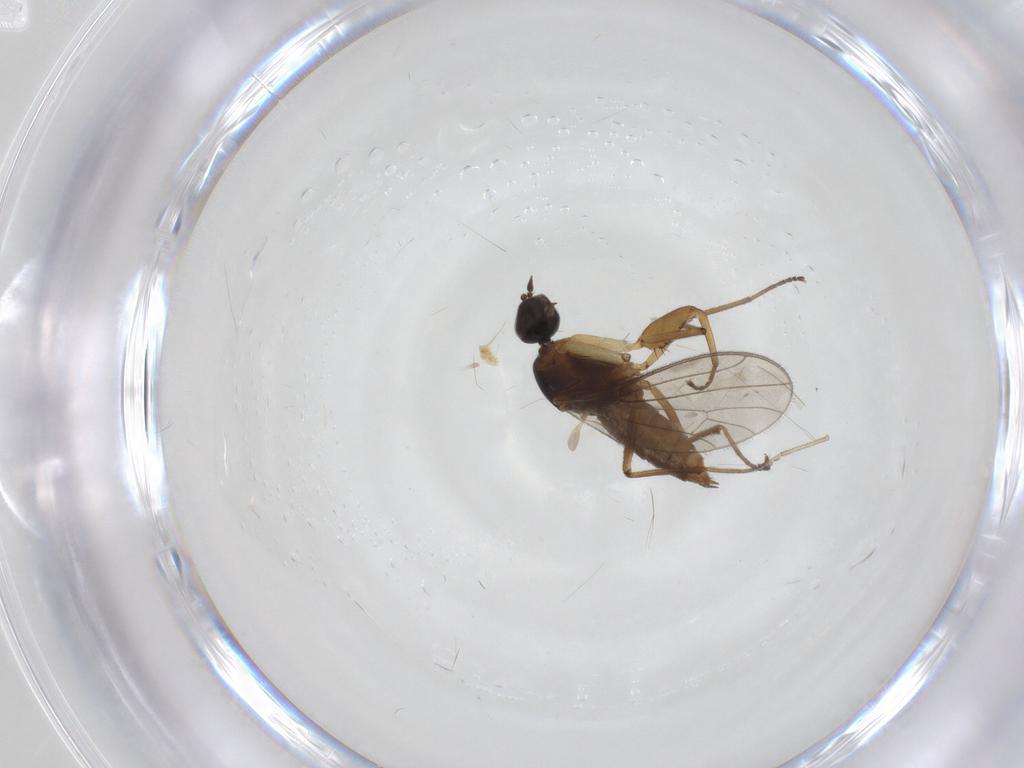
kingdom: Animalia
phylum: Arthropoda
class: Insecta
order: Diptera
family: Empididae
